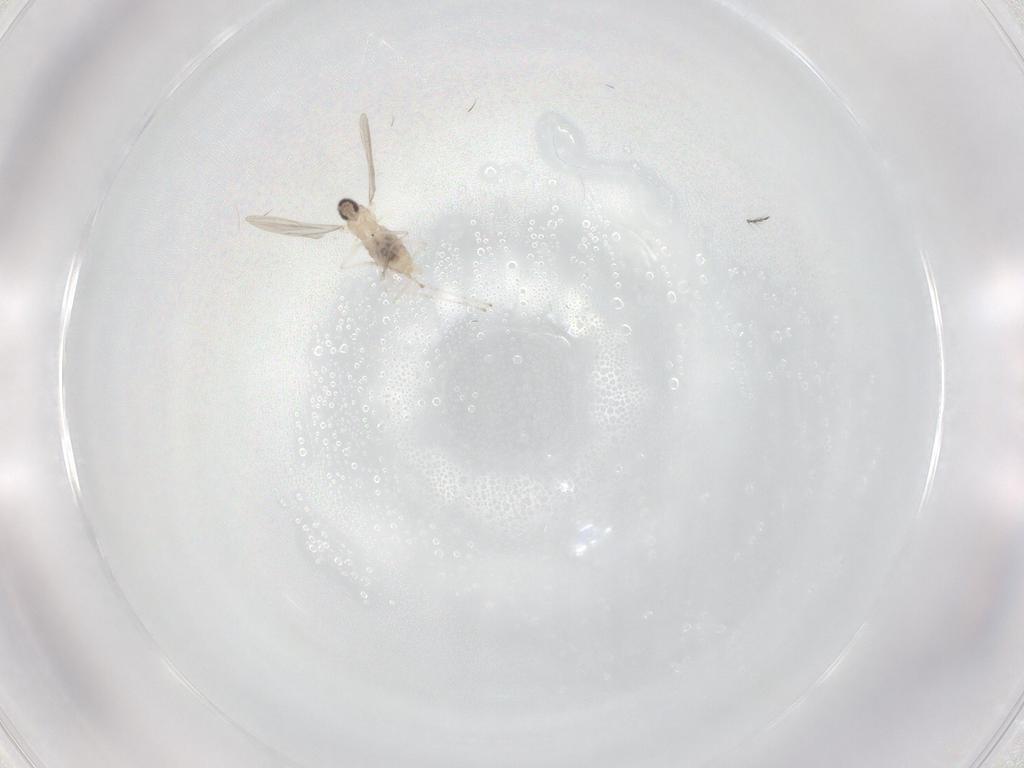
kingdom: Animalia
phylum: Arthropoda
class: Insecta
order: Diptera
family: Cecidomyiidae
